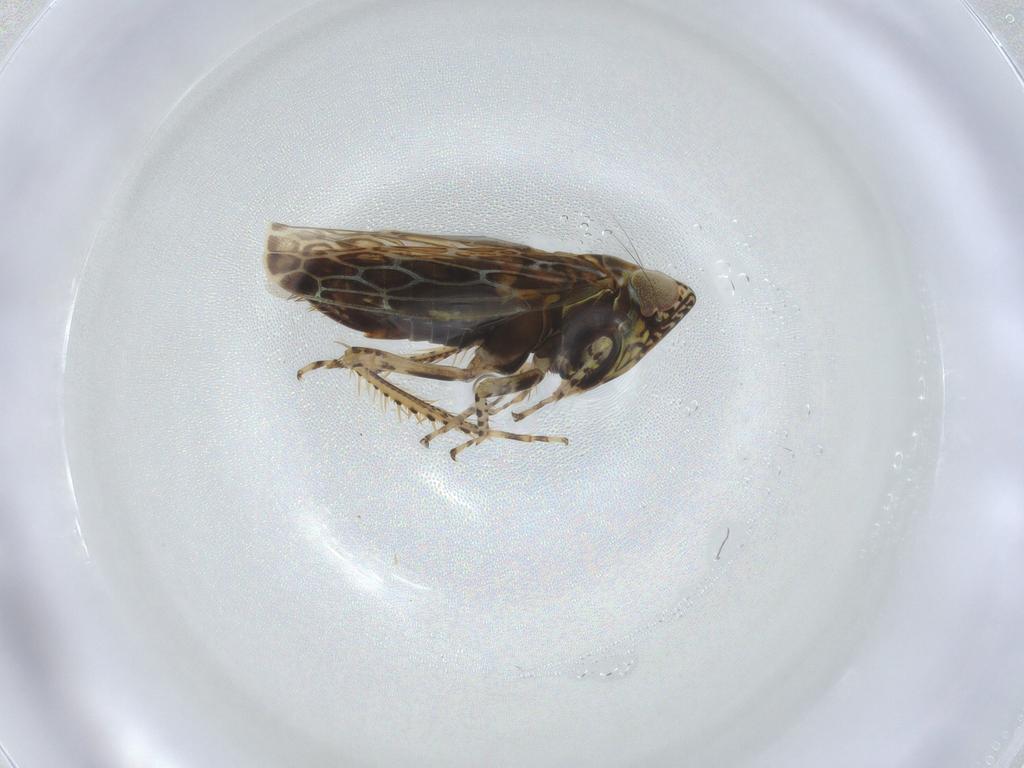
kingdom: Animalia
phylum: Arthropoda
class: Insecta
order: Hemiptera
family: Cicadellidae
